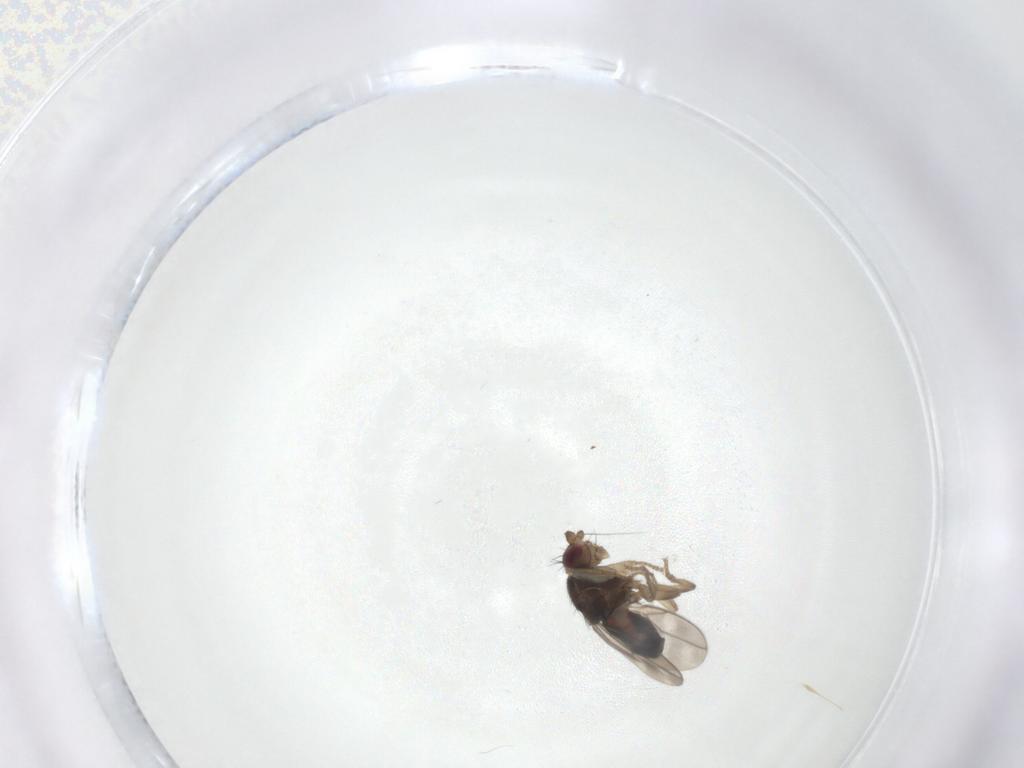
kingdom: Animalia
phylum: Arthropoda
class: Insecta
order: Diptera
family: Sphaeroceridae
